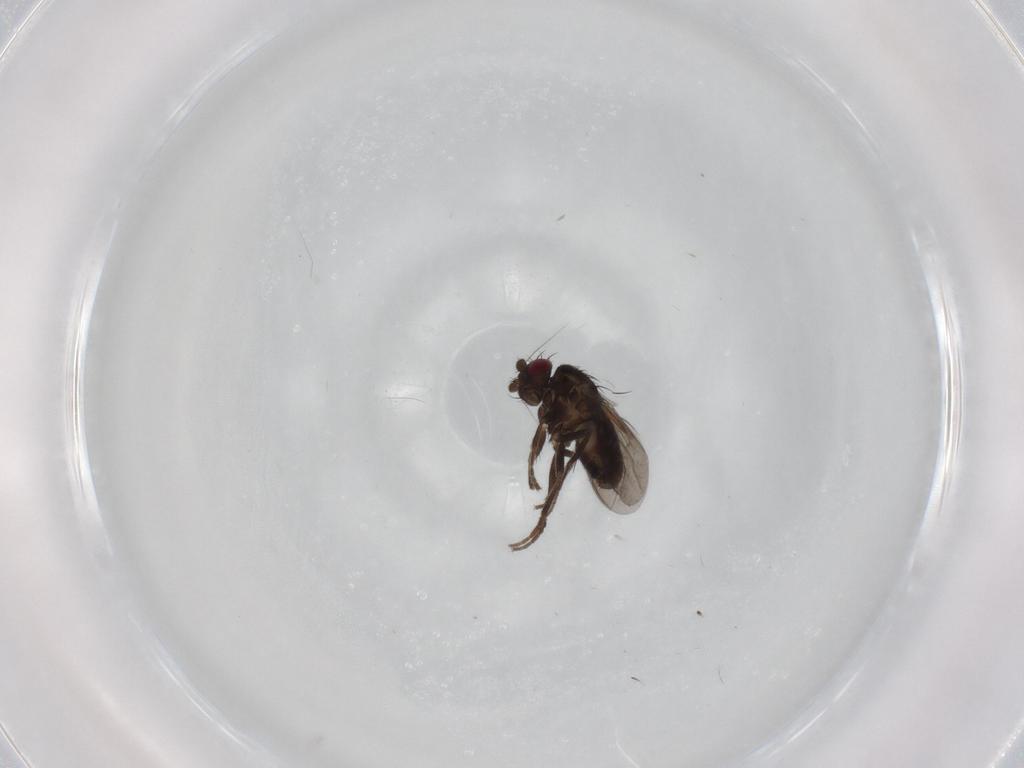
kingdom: Animalia
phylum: Arthropoda
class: Insecta
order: Diptera
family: Sphaeroceridae
